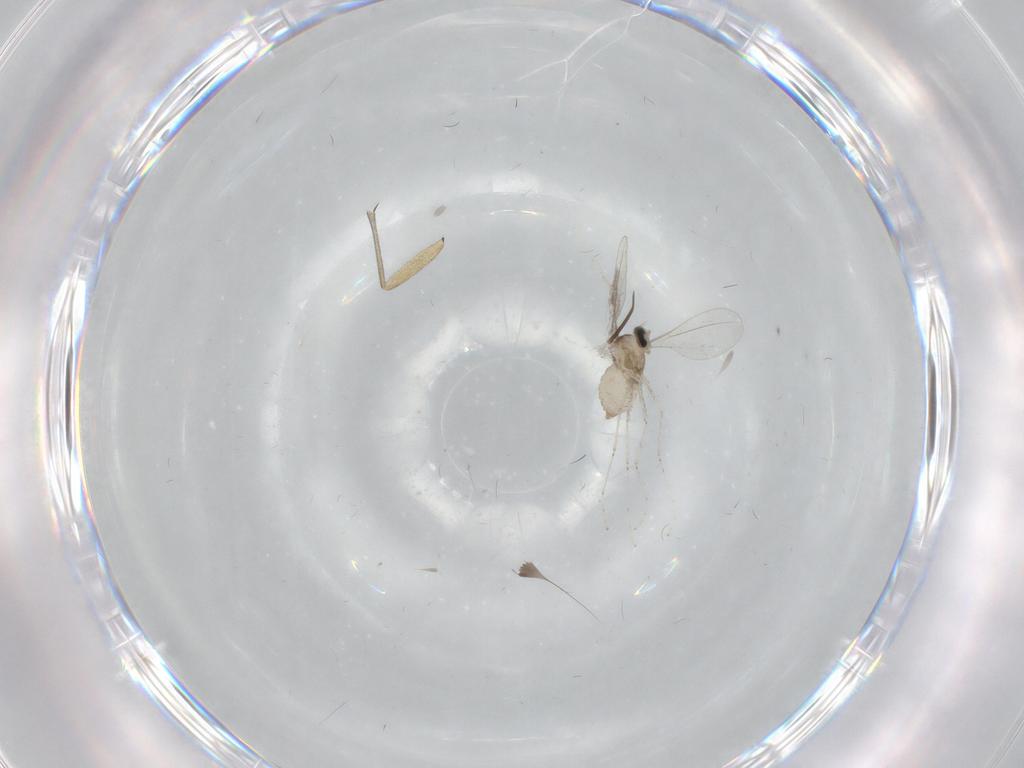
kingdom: Animalia
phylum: Arthropoda
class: Insecta
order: Diptera
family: Cecidomyiidae
